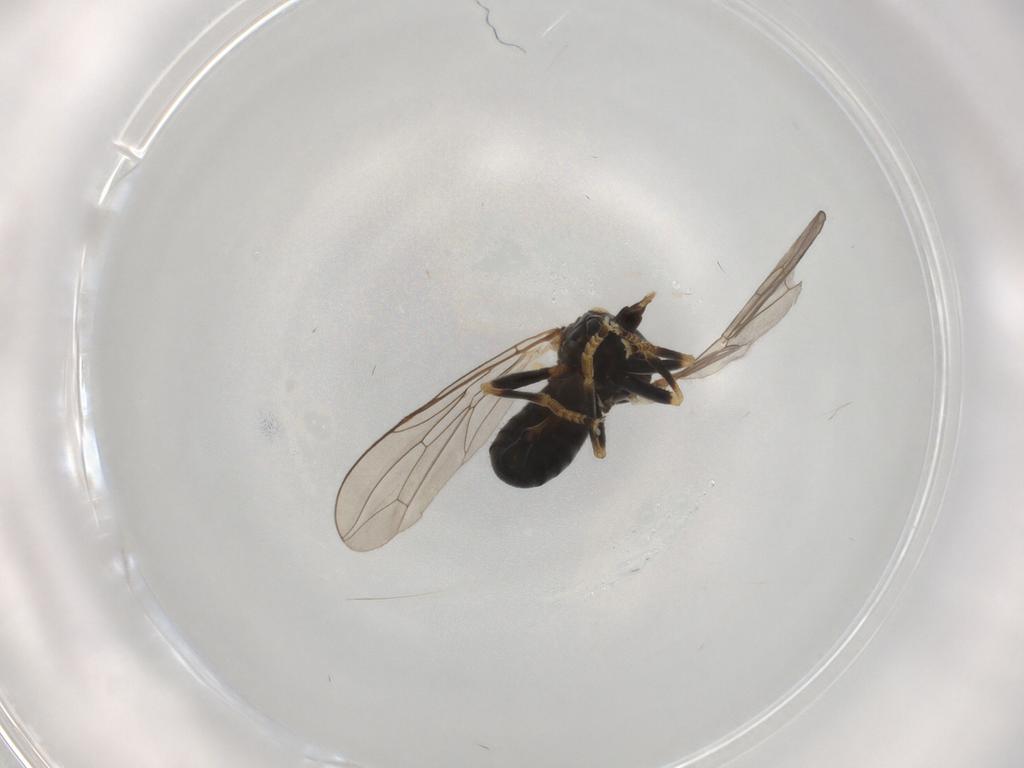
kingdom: Animalia
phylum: Arthropoda
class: Insecta
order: Diptera
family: Pipunculidae
